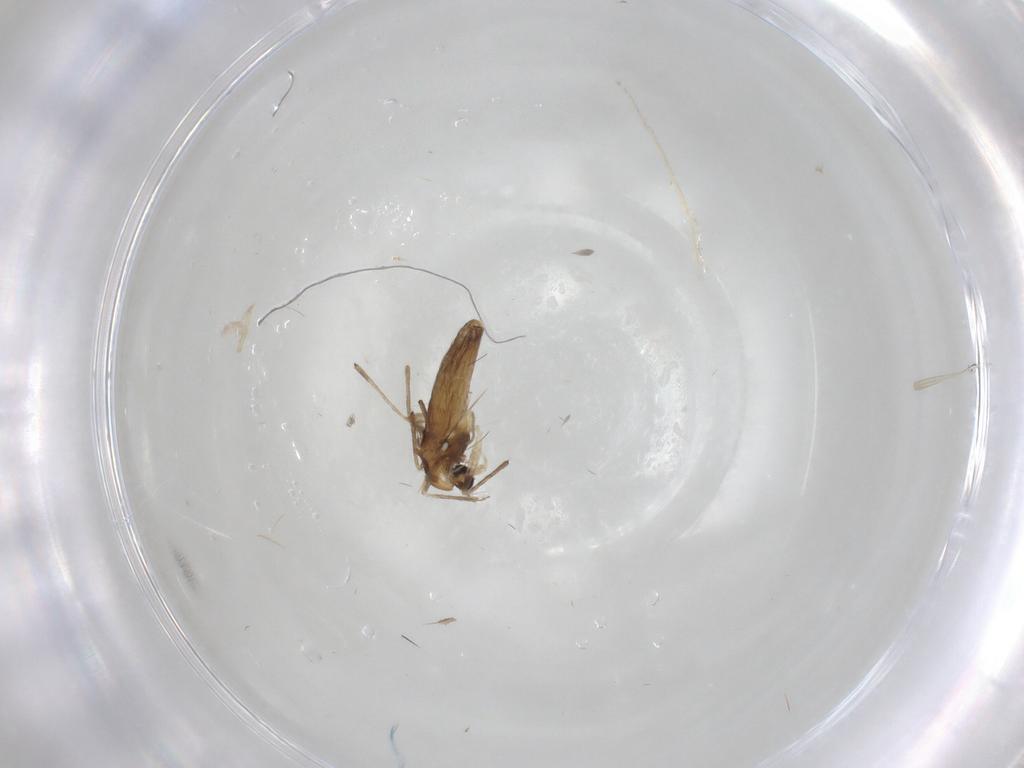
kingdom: Animalia
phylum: Arthropoda
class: Insecta
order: Diptera
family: Chironomidae
